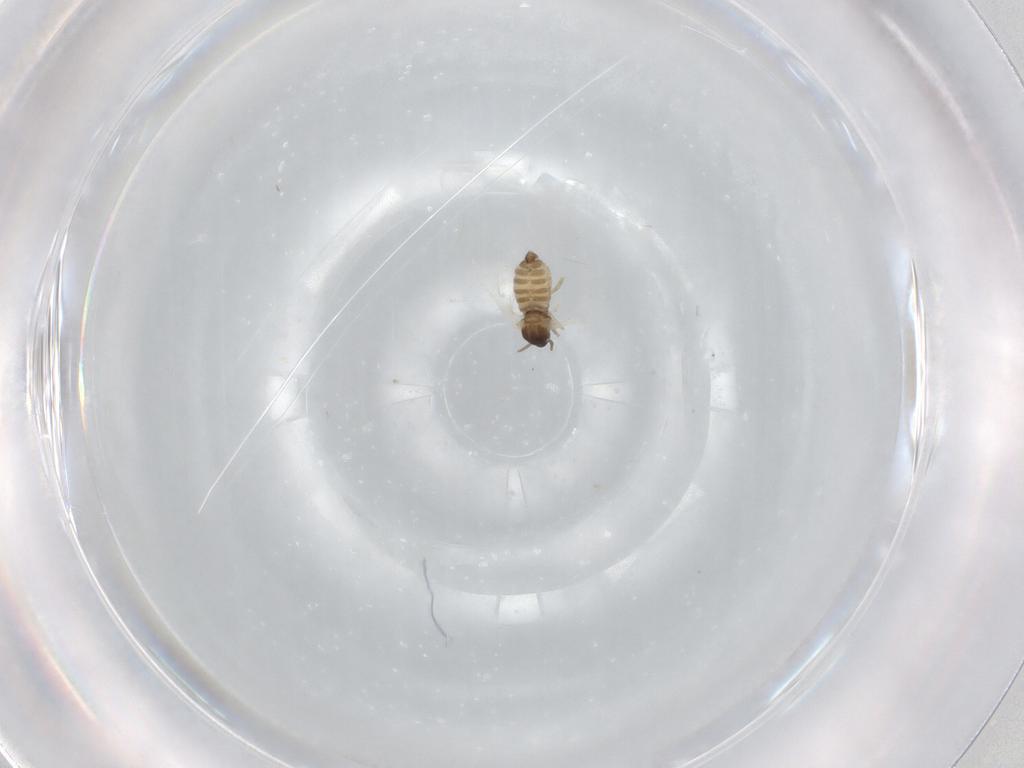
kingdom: Animalia
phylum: Arthropoda
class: Insecta
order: Diptera
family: Cecidomyiidae
